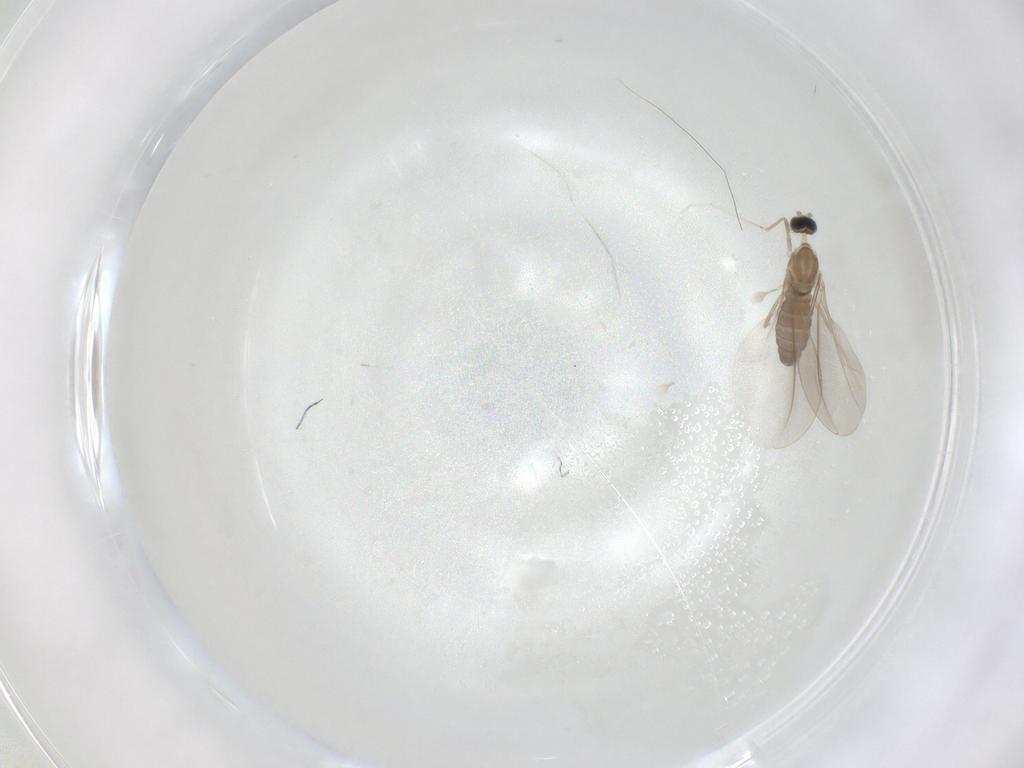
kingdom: Animalia
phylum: Arthropoda
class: Insecta
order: Diptera
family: Cecidomyiidae
